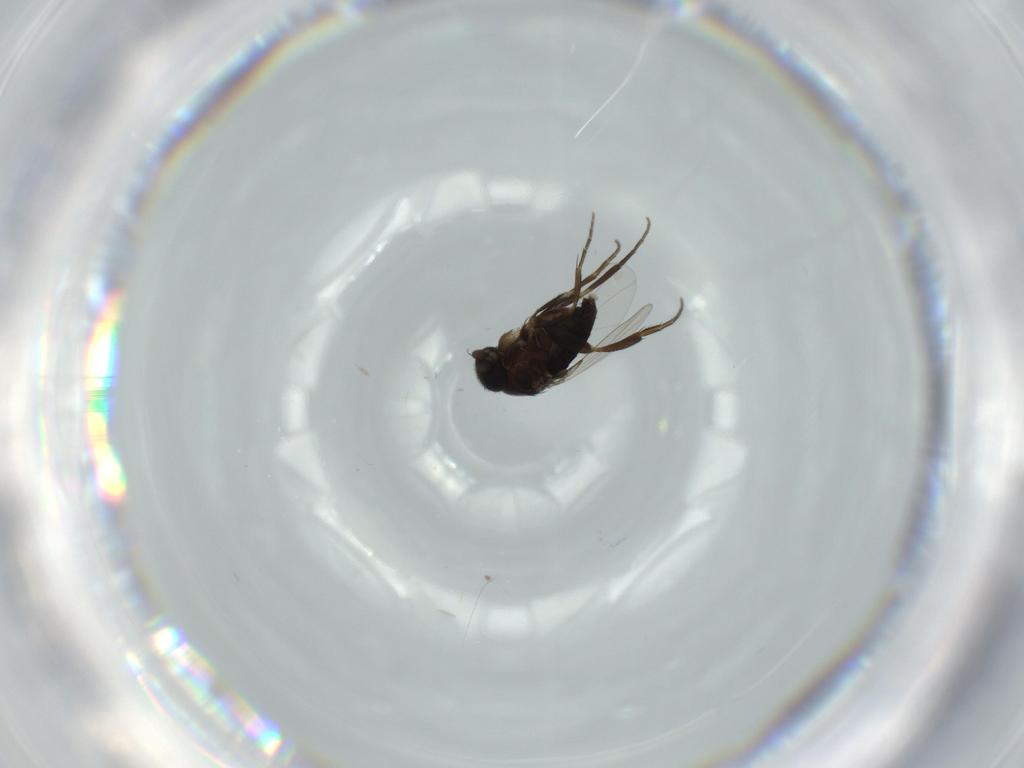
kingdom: Animalia
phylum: Arthropoda
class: Insecta
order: Diptera
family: Phoridae
